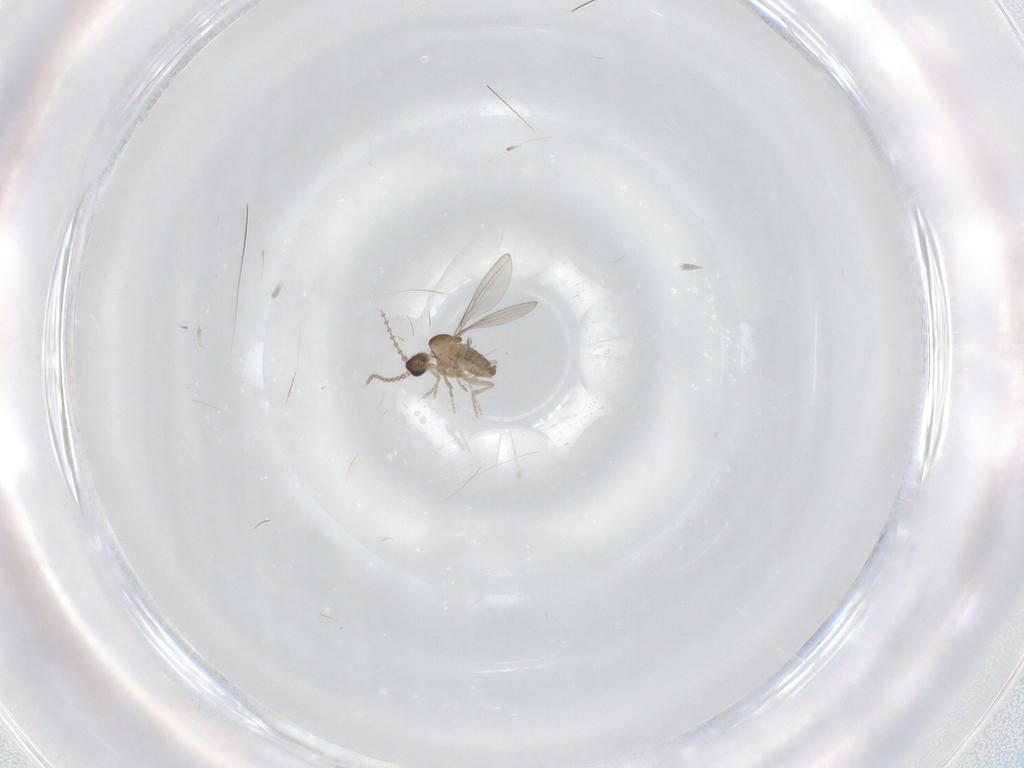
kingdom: Animalia
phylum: Arthropoda
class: Insecta
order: Diptera
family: Cecidomyiidae
